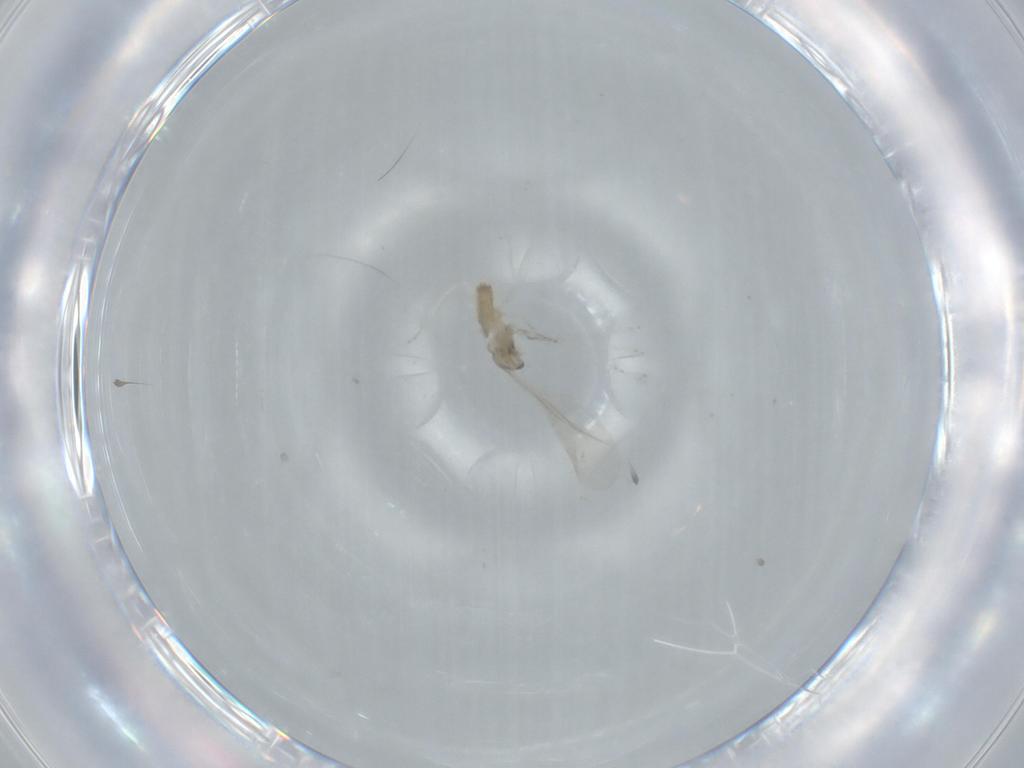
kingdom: Animalia
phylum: Arthropoda
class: Insecta
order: Diptera
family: Cecidomyiidae
